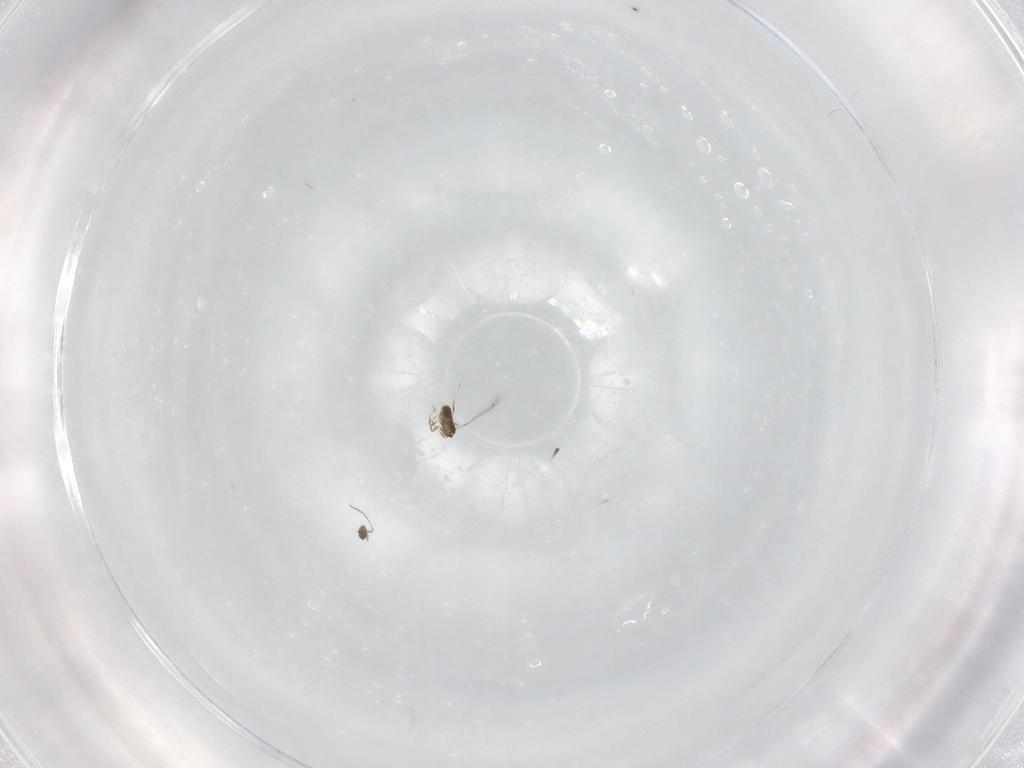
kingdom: Animalia
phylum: Arthropoda
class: Insecta
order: Hymenoptera
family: Mymaridae
